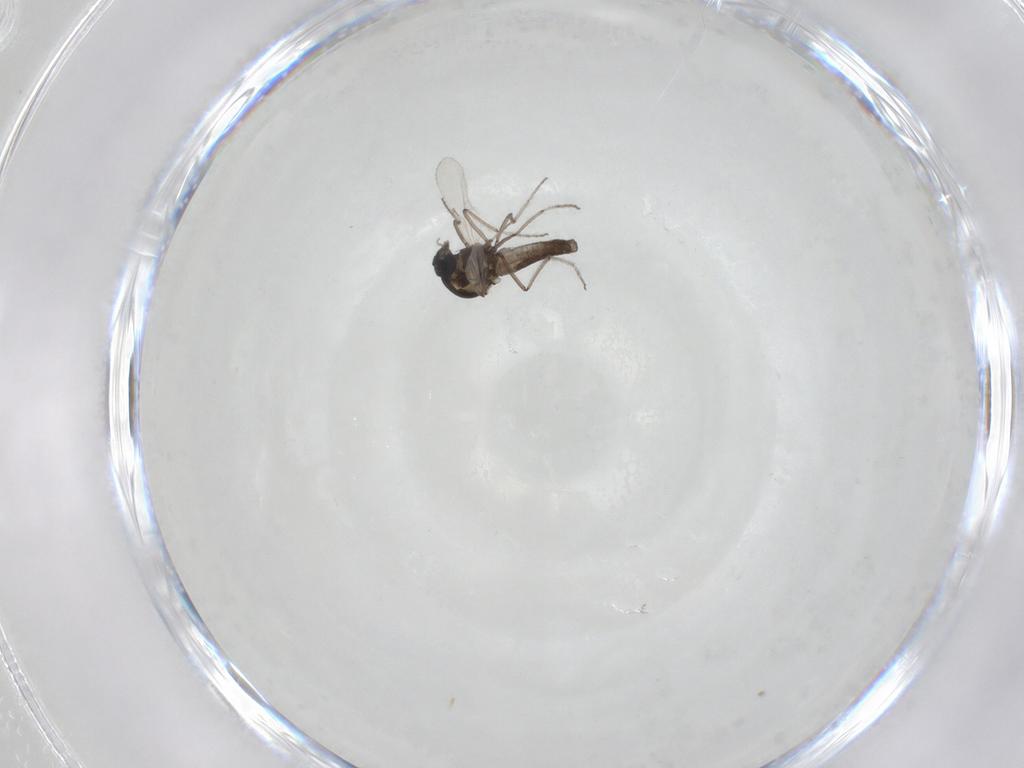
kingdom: Animalia
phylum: Arthropoda
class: Insecta
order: Diptera
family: Ceratopogonidae
